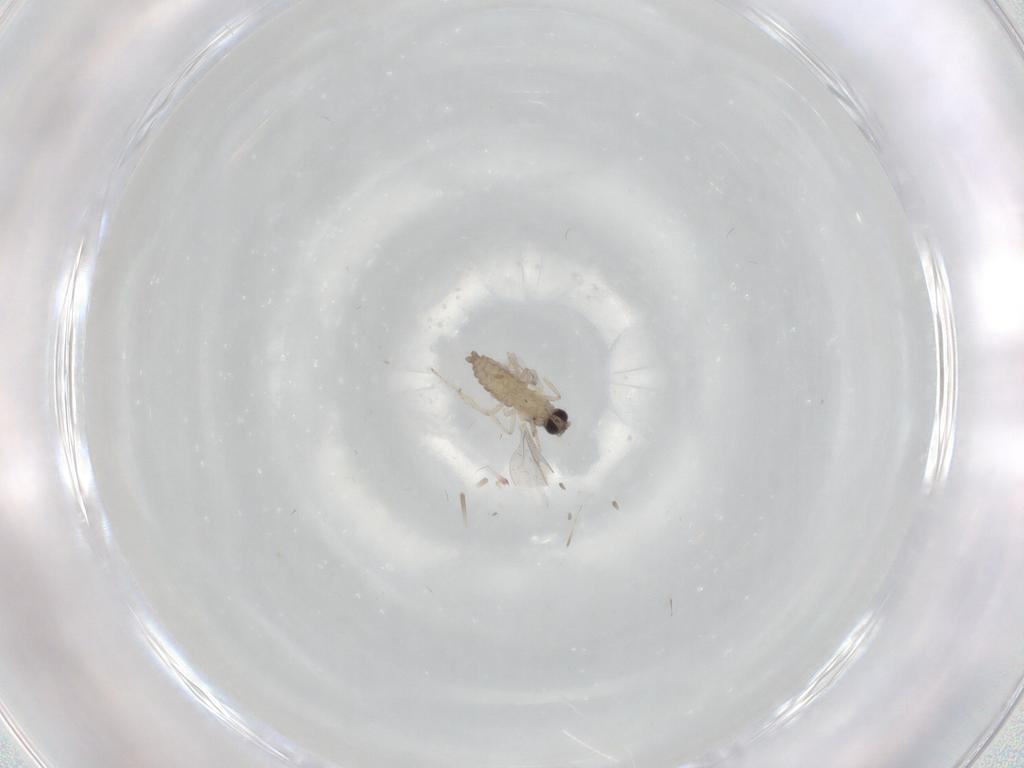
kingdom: Animalia
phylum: Arthropoda
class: Insecta
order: Diptera
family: Cecidomyiidae
